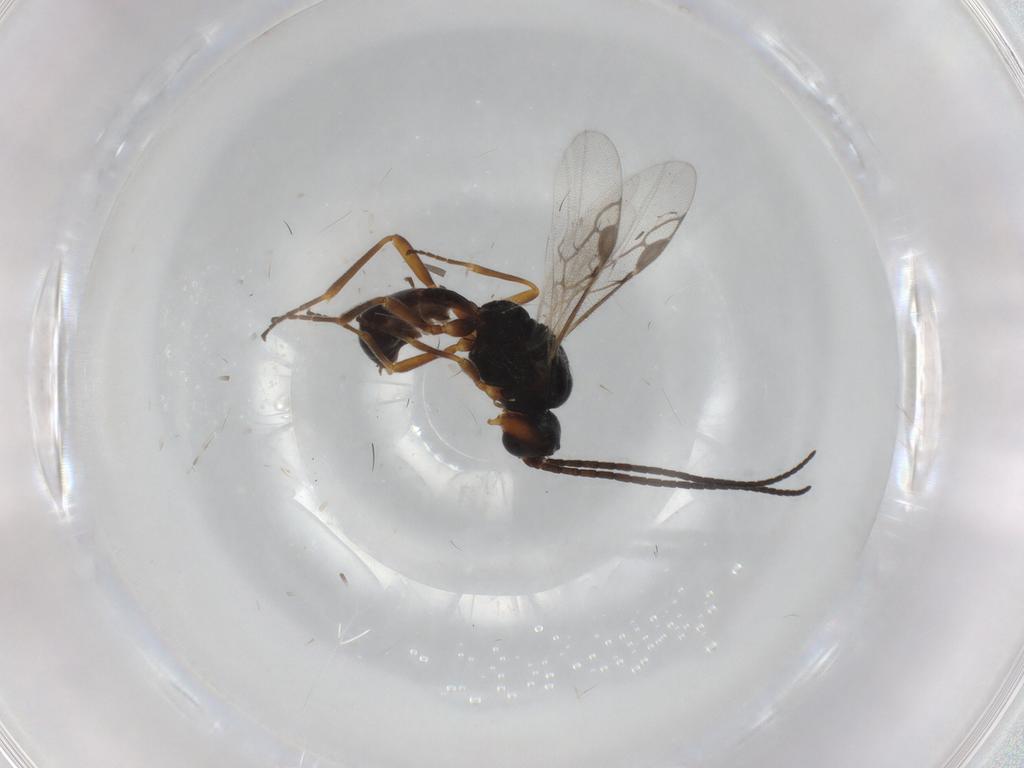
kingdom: Animalia
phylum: Arthropoda
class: Insecta
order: Hymenoptera
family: Braconidae
